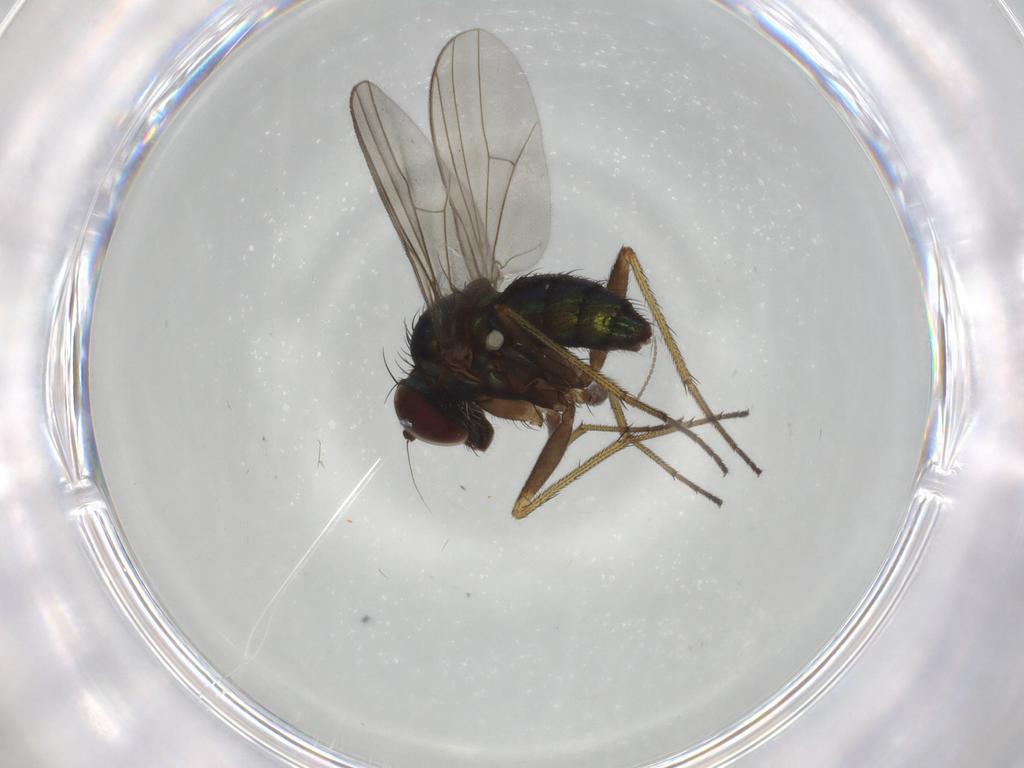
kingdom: Animalia
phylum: Arthropoda
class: Insecta
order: Diptera
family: Dolichopodidae
